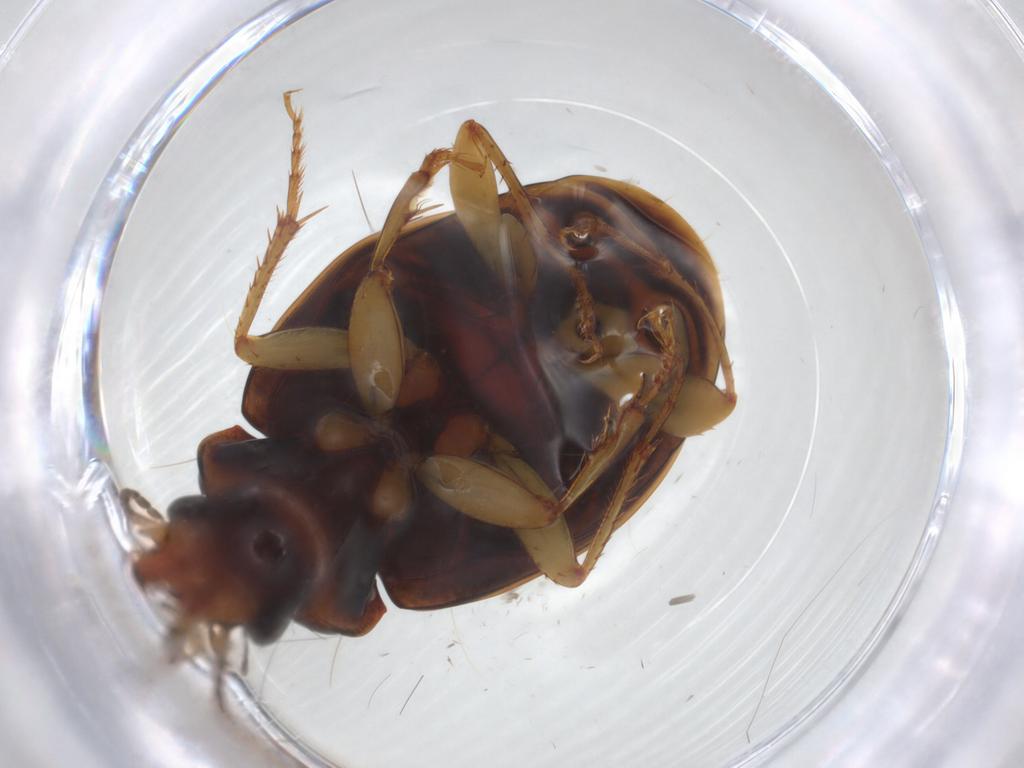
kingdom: Animalia
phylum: Arthropoda
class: Insecta
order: Coleoptera
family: Carabidae
